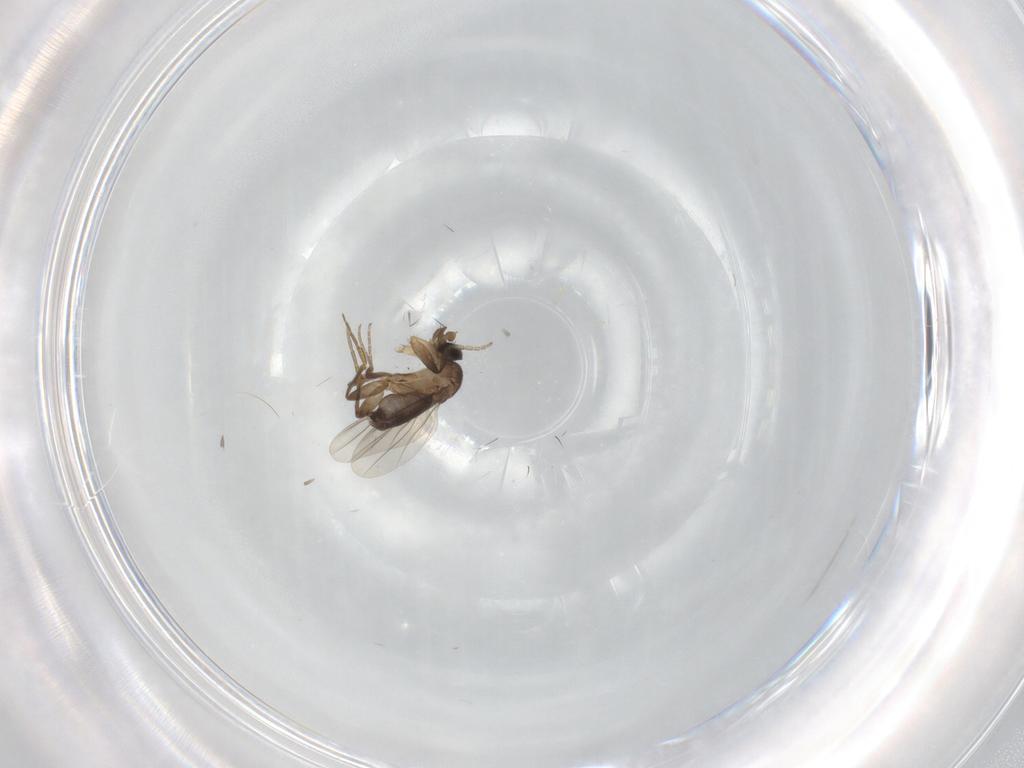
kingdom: Animalia
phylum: Arthropoda
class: Insecta
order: Diptera
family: Phoridae
